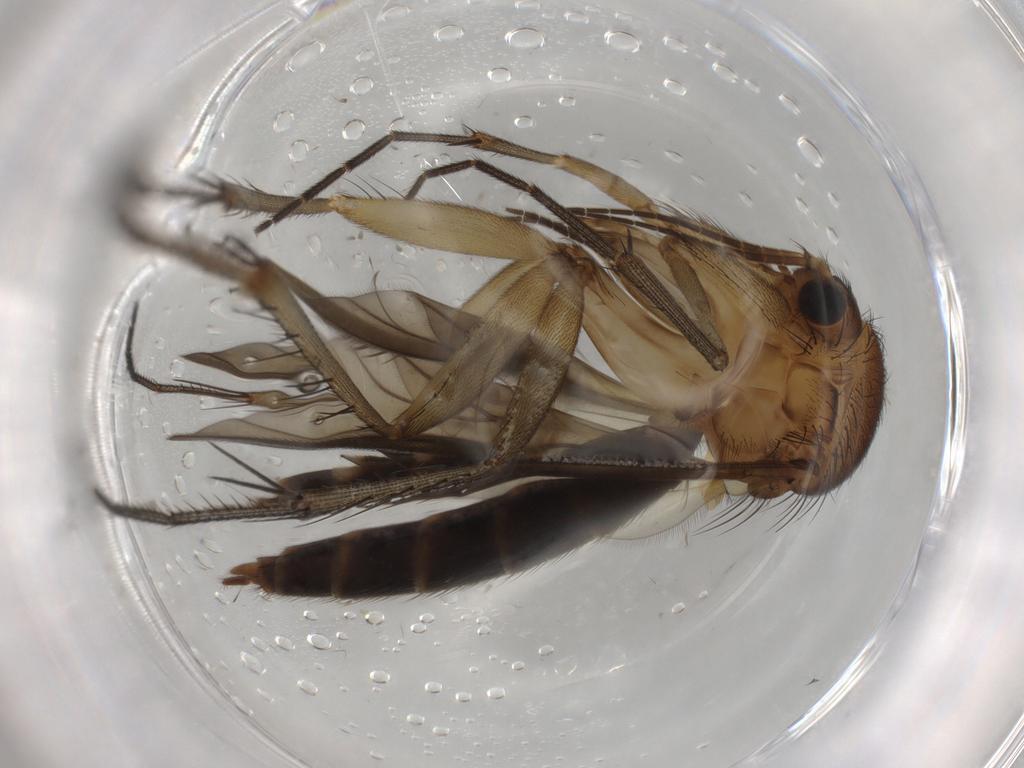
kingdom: Animalia
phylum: Arthropoda
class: Insecta
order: Diptera
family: Mycetophilidae
